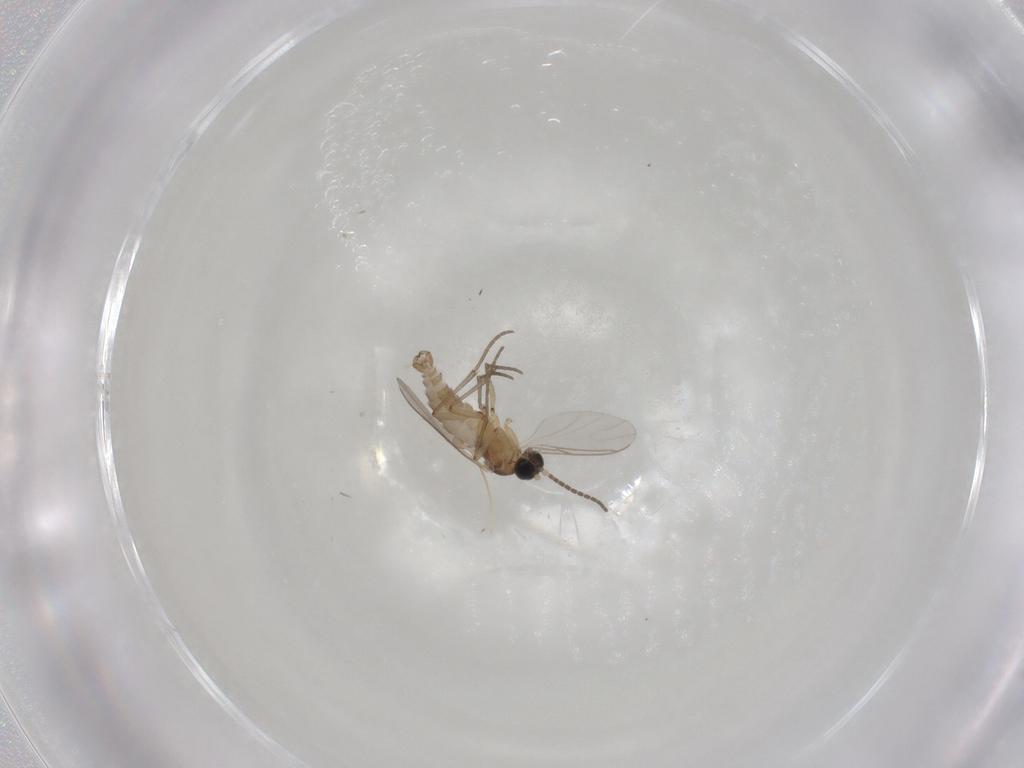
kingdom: Animalia
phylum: Arthropoda
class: Insecta
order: Diptera
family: Sciaridae
